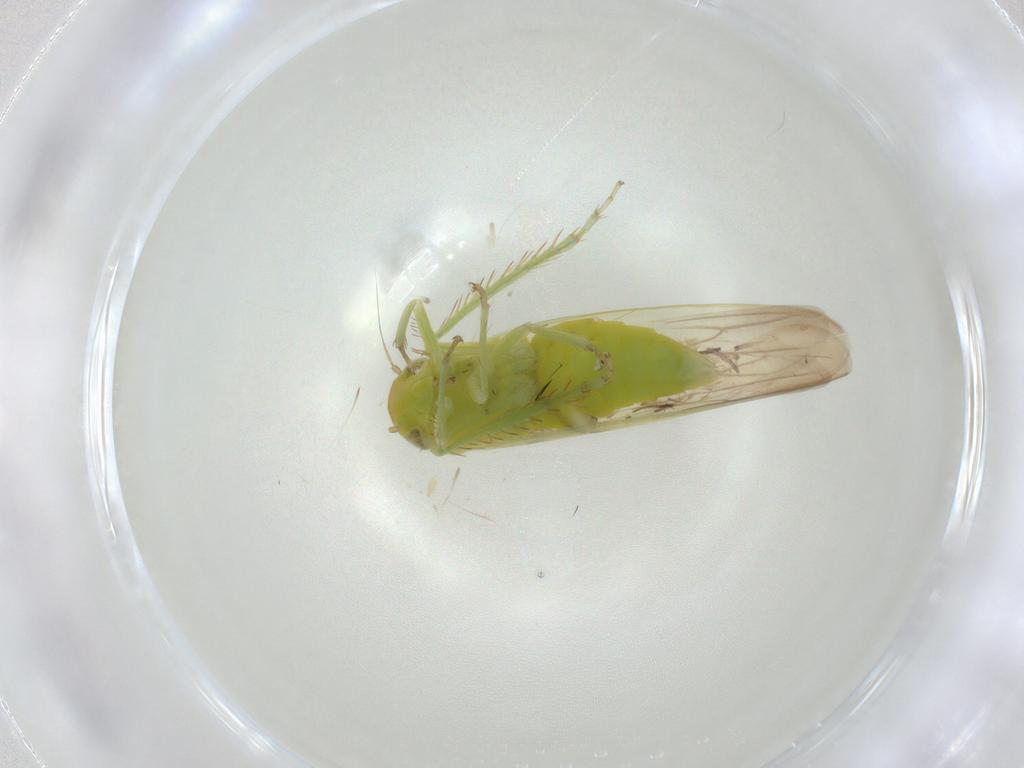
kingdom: Animalia
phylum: Arthropoda
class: Insecta
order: Hemiptera
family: Cicadellidae
